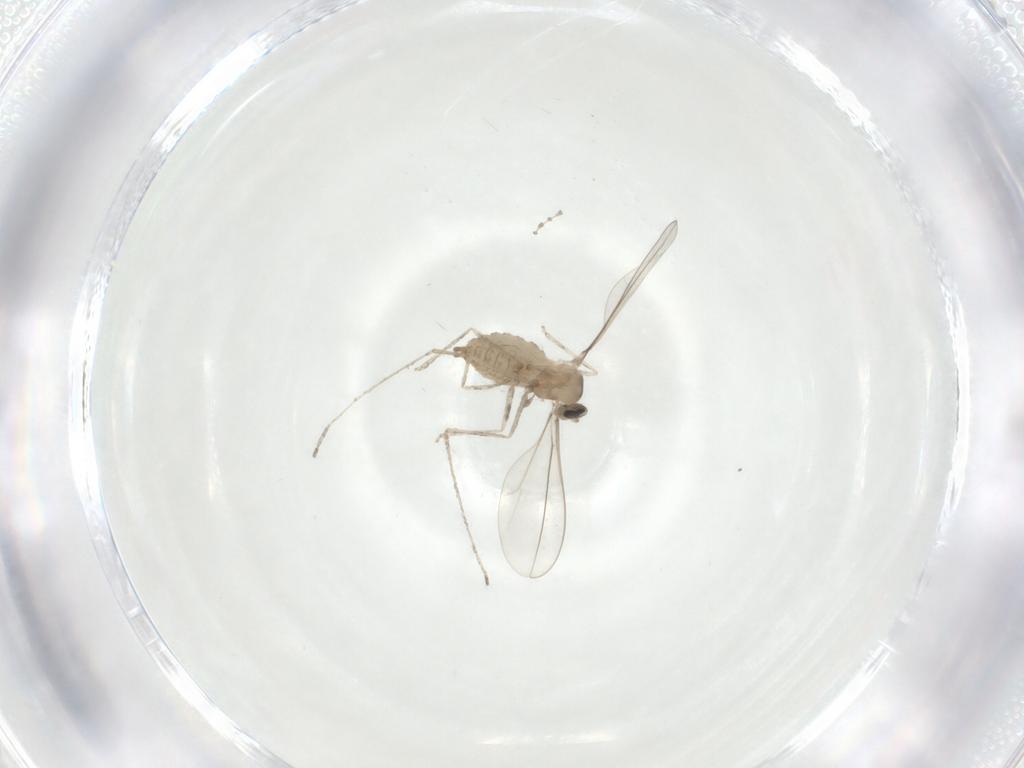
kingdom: Animalia
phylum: Arthropoda
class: Insecta
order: Diptera
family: Cecidomyiidae
